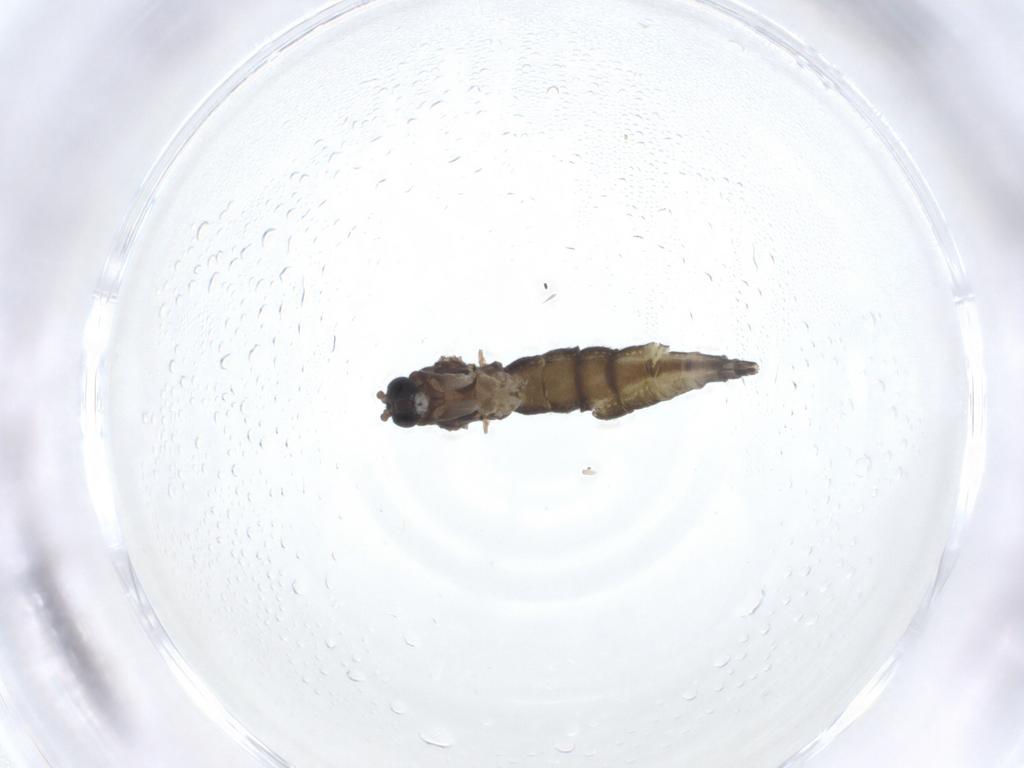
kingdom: Animalia
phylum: Arthropoda
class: Insecta
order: Diptera
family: Sciaridae
